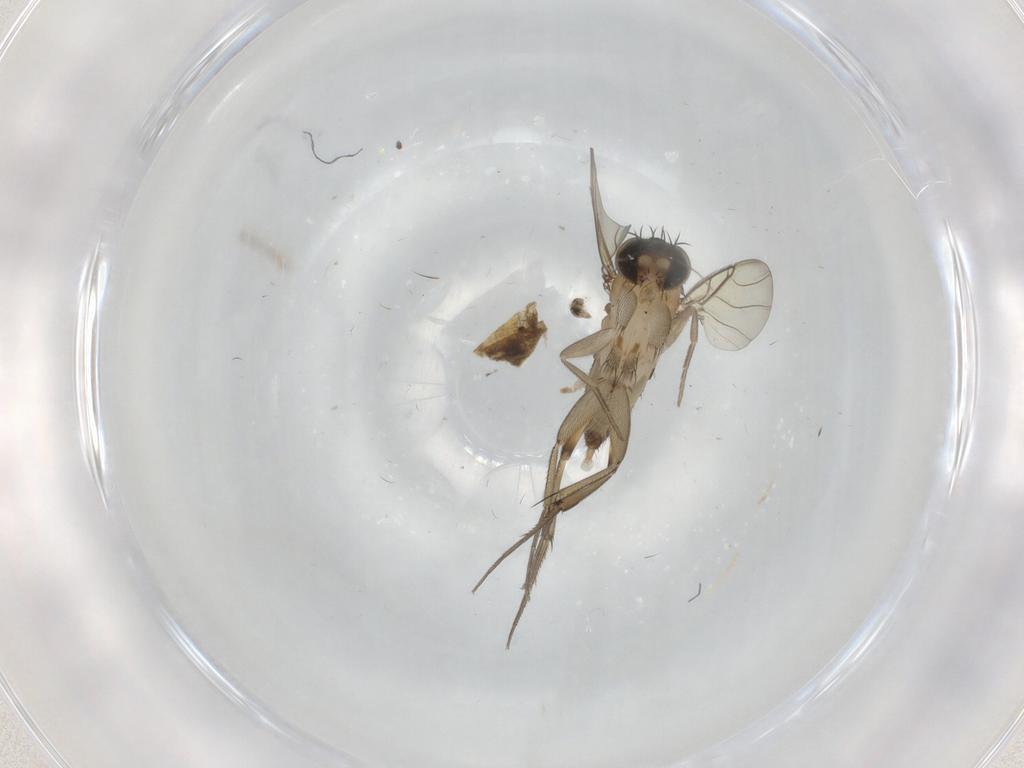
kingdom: Animalia
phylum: Arthropoda
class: Insecta
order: Diptera
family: Phoridae
